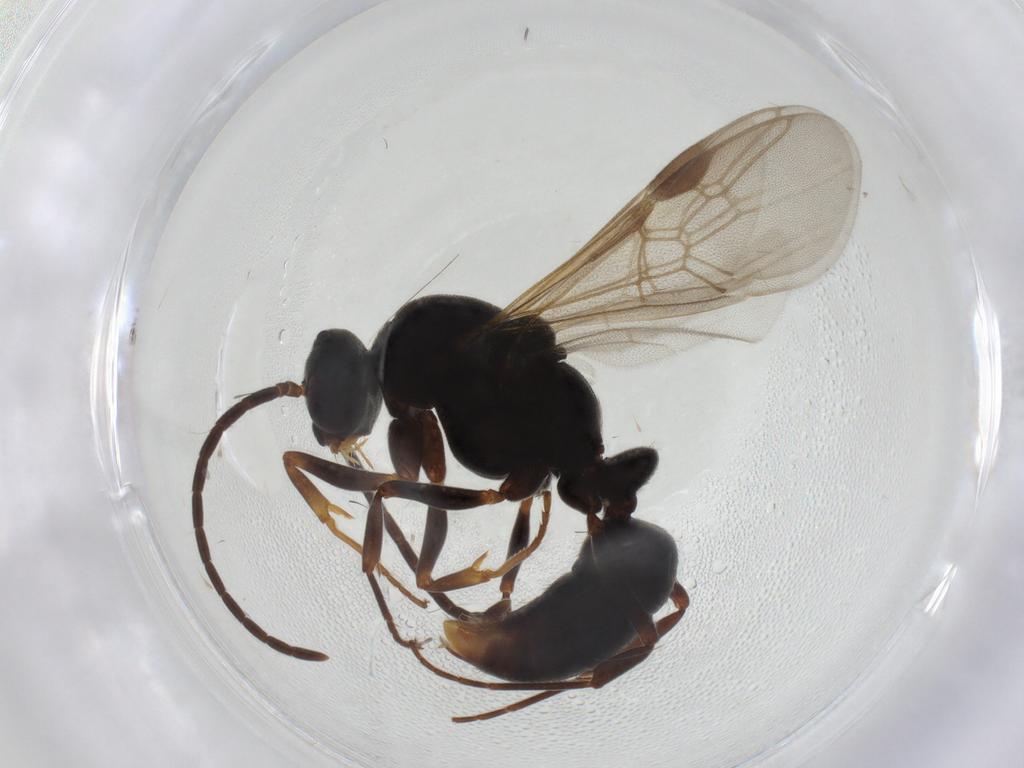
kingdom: Animalia
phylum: Arthropoda
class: Insecta
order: Hymenoptera
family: Formicidae
